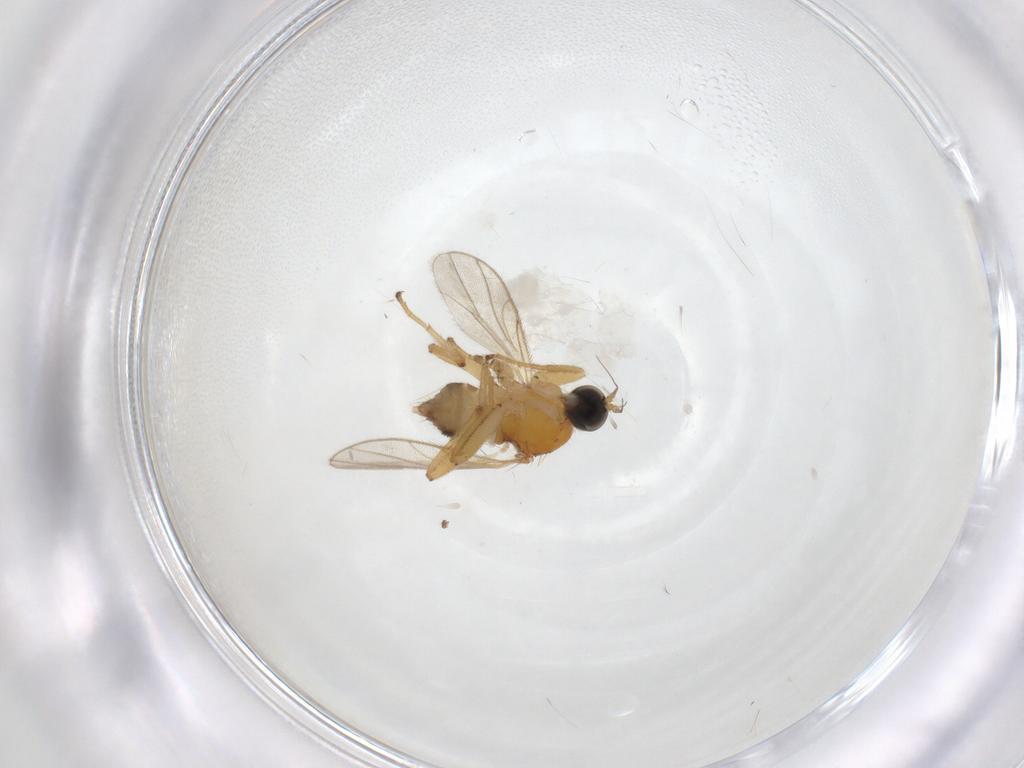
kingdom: Animalia
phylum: Arthropoda
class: Insecta
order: Diptera
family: Hybotidae
